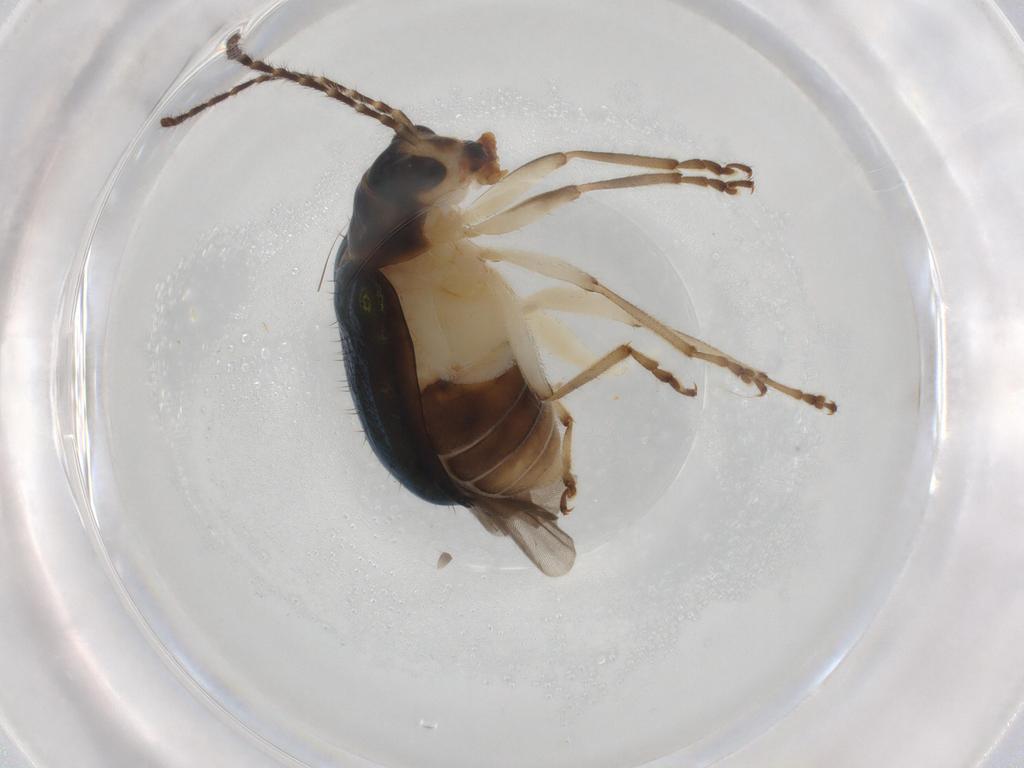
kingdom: Animalia
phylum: Arthropoda
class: Insecta
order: Coleoptera
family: Chrysomelidae
